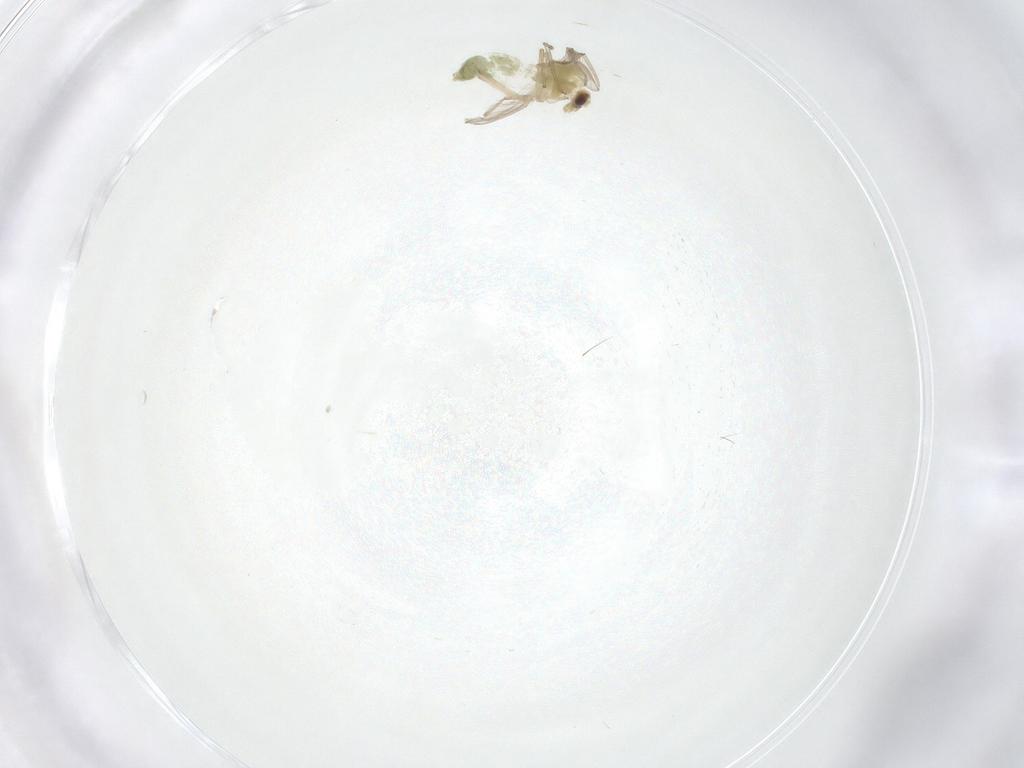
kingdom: Animalia
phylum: Arthropoda
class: Insecta
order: Diptera
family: Chironomidae
